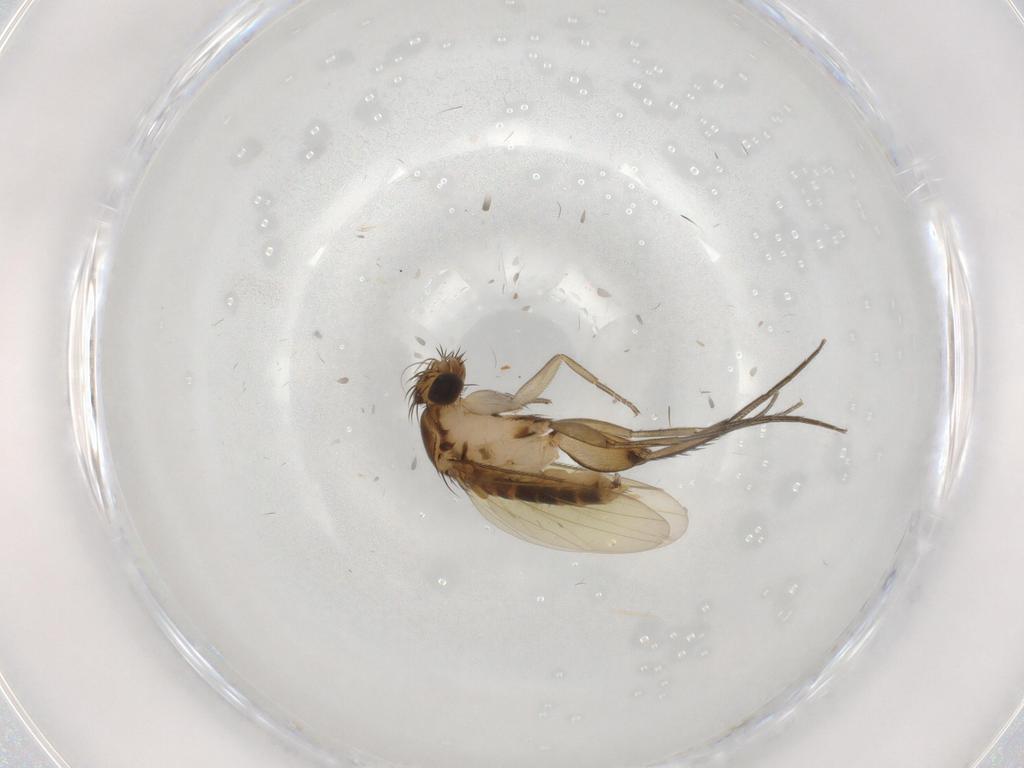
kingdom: Animalia
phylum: Arthropoda
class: Insecta
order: Diptera
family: Phoridae
